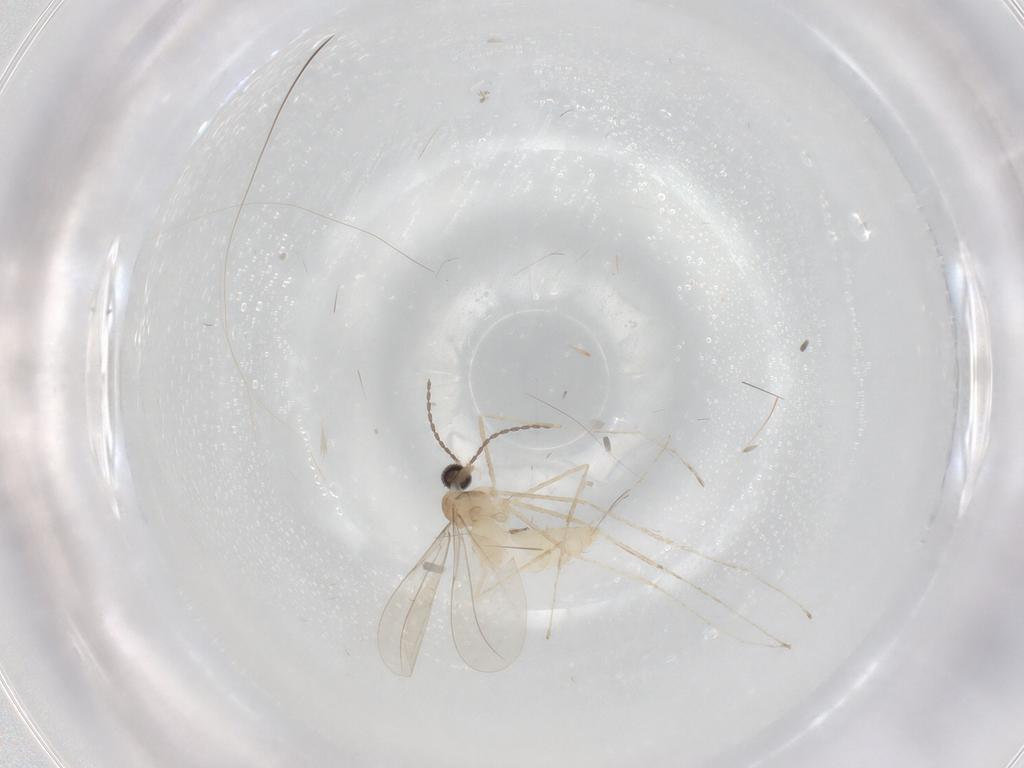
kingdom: Animalia
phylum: Arthropoda
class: Insecta
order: Diptera
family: Cecidomyiidae
